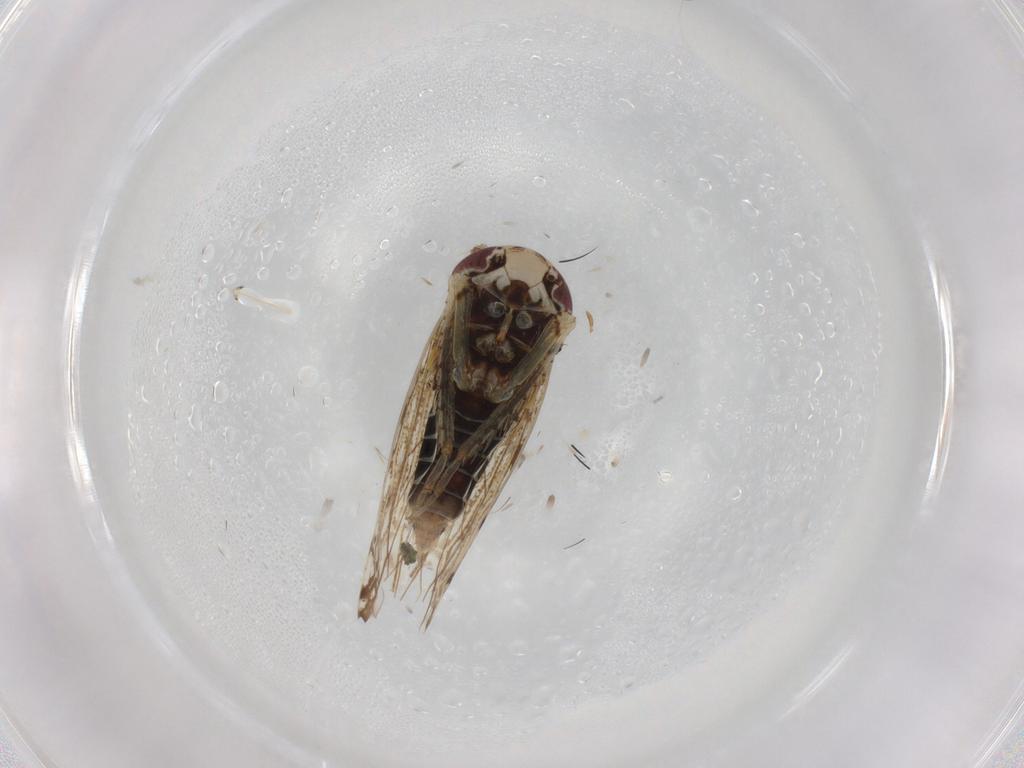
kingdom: Animalia
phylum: Arthropoda
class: Insecta
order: Hemiptera
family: Cicadellidae
